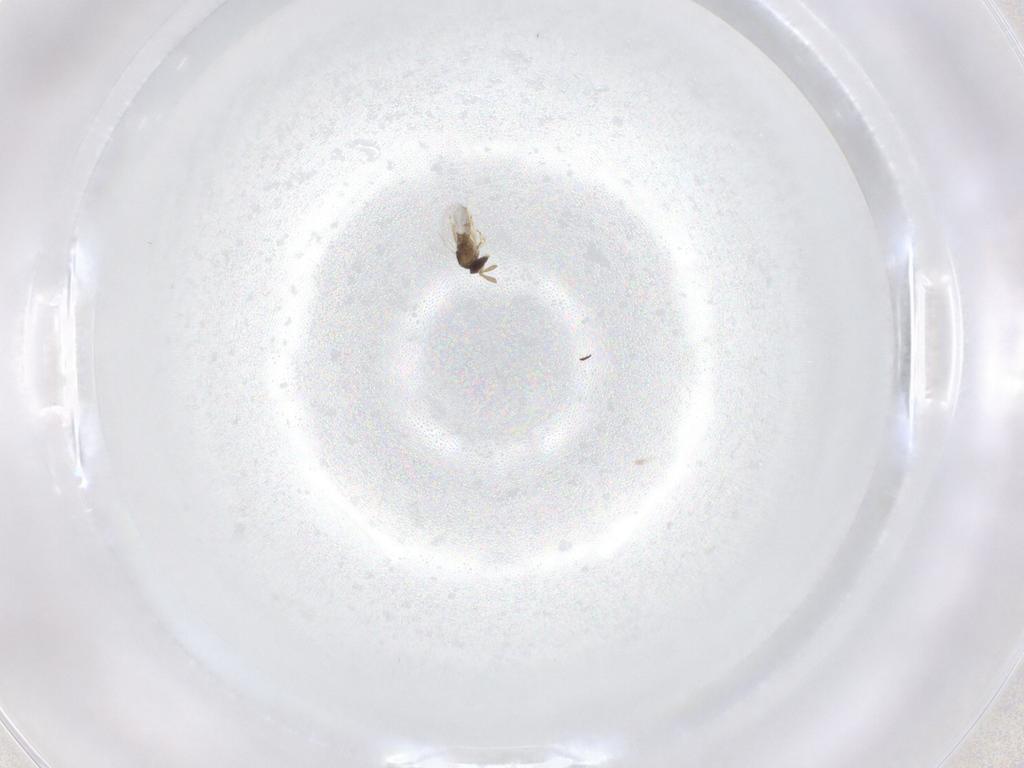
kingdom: Animalia
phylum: Arthropoda
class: Insecta
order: Hymenoptera
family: Encyrtidae
